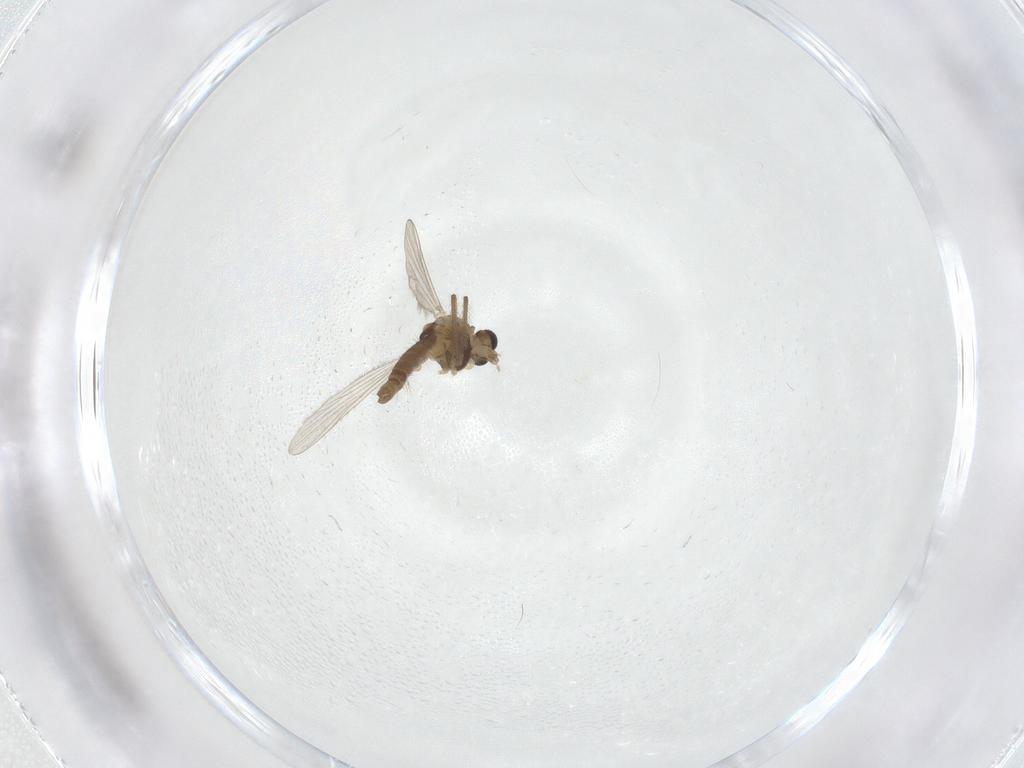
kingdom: Animalia
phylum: Arthropoda
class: Insecta
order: Diptera
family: Chironomidae
